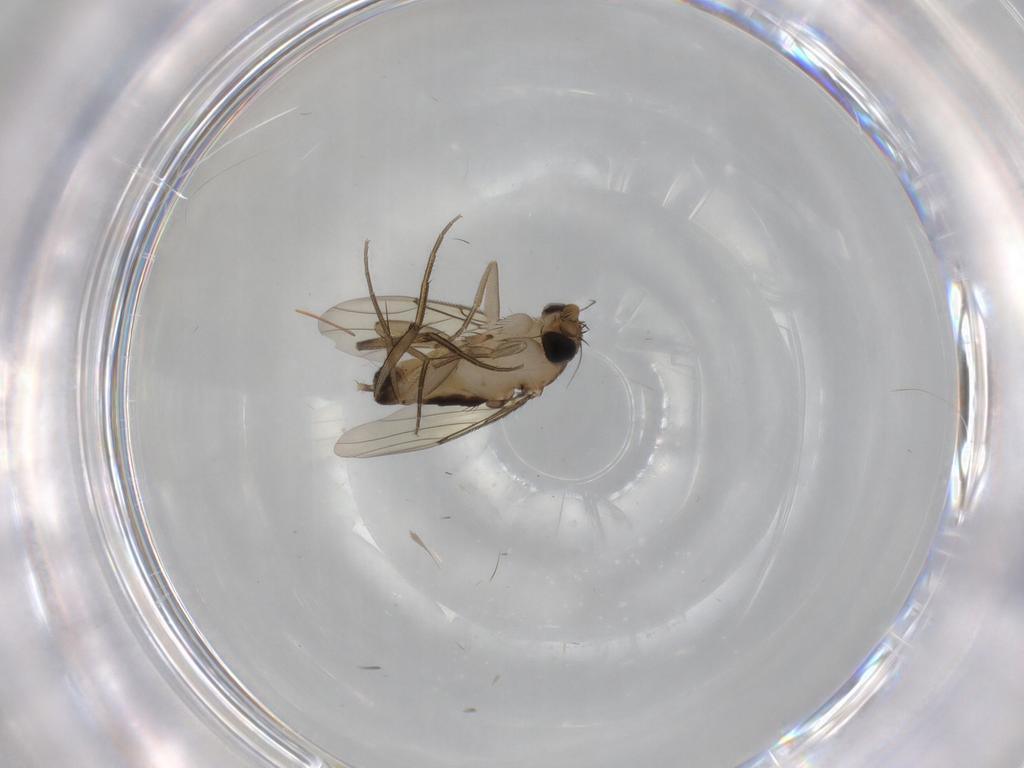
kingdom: Animalia
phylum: Arthropoda
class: Insecta
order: Diptera
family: Phoridae
